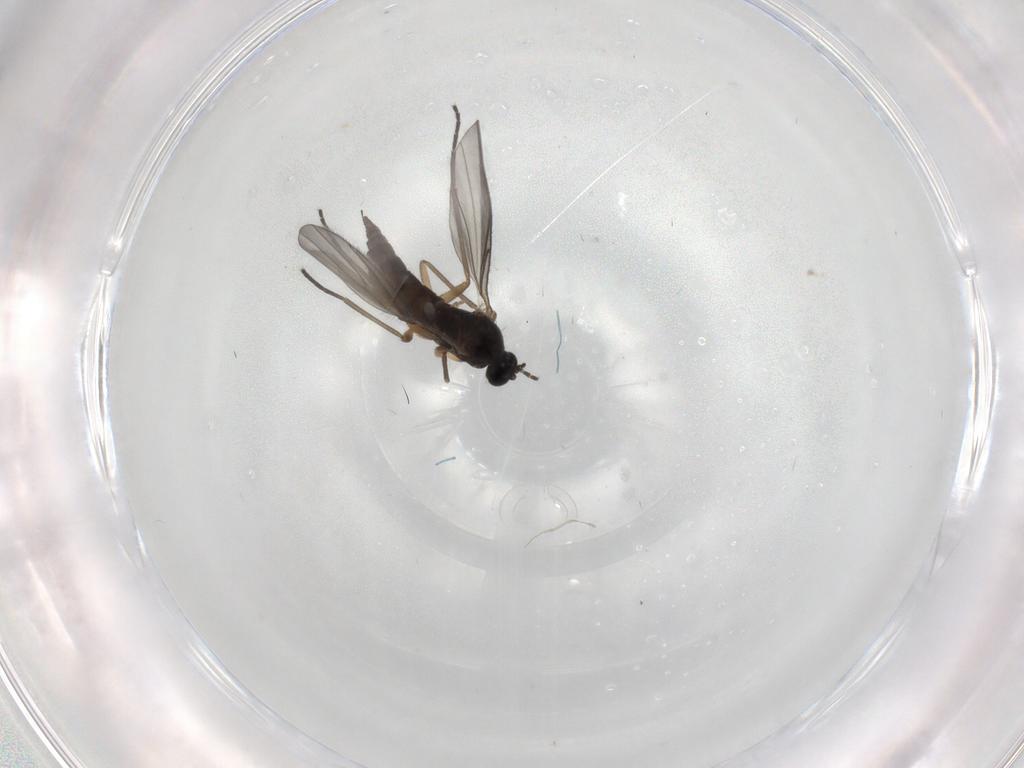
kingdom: Animalia
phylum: Arthropoda
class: Insecta
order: Diptera
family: Sciaridae
